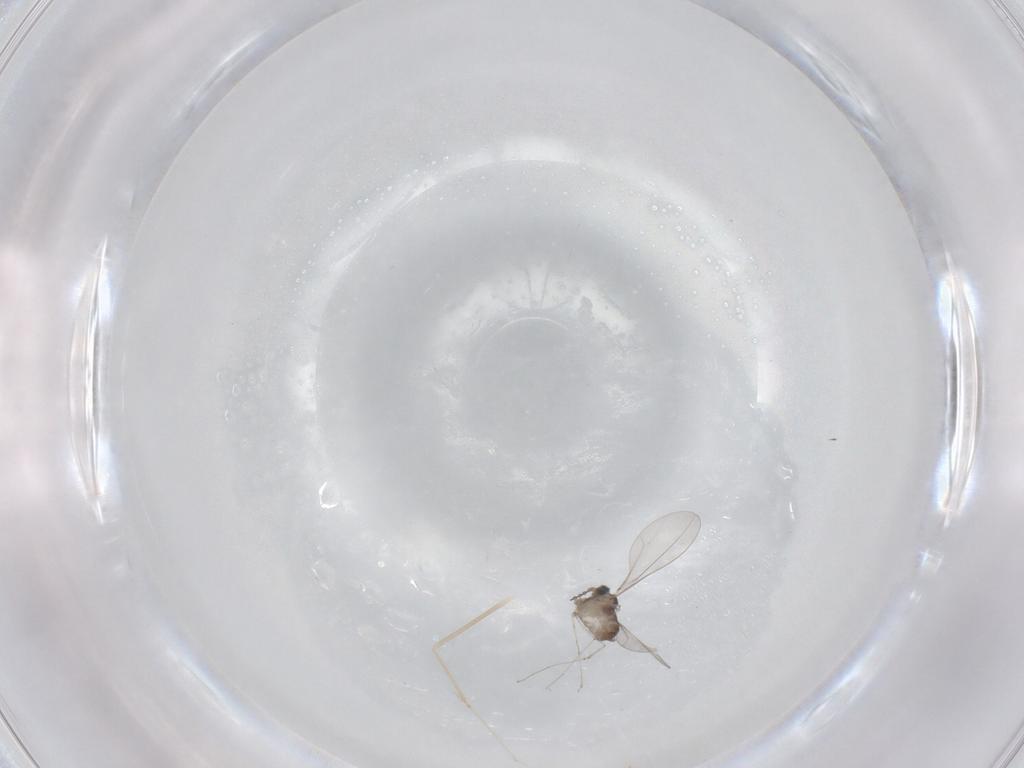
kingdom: Animalia
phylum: Arthropoda
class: Insecta
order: Diptera
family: Cecidomyiidae
